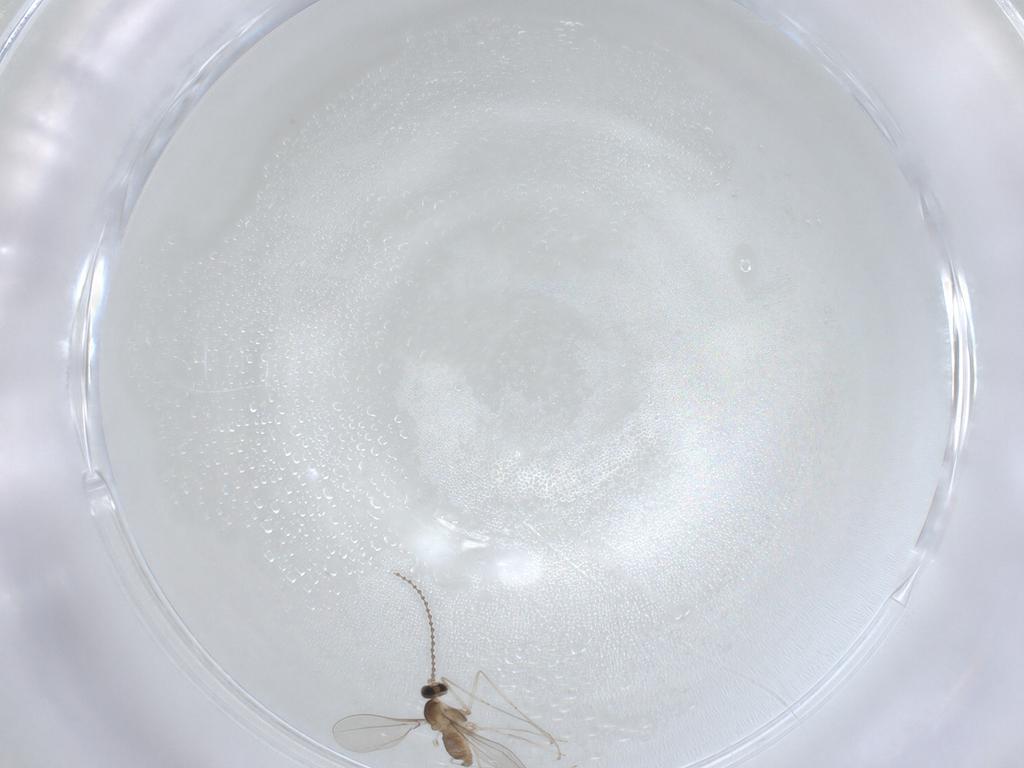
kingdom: Animalia
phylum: Arthropoda
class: Insecta
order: Diptera
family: Cecidomyiidae
